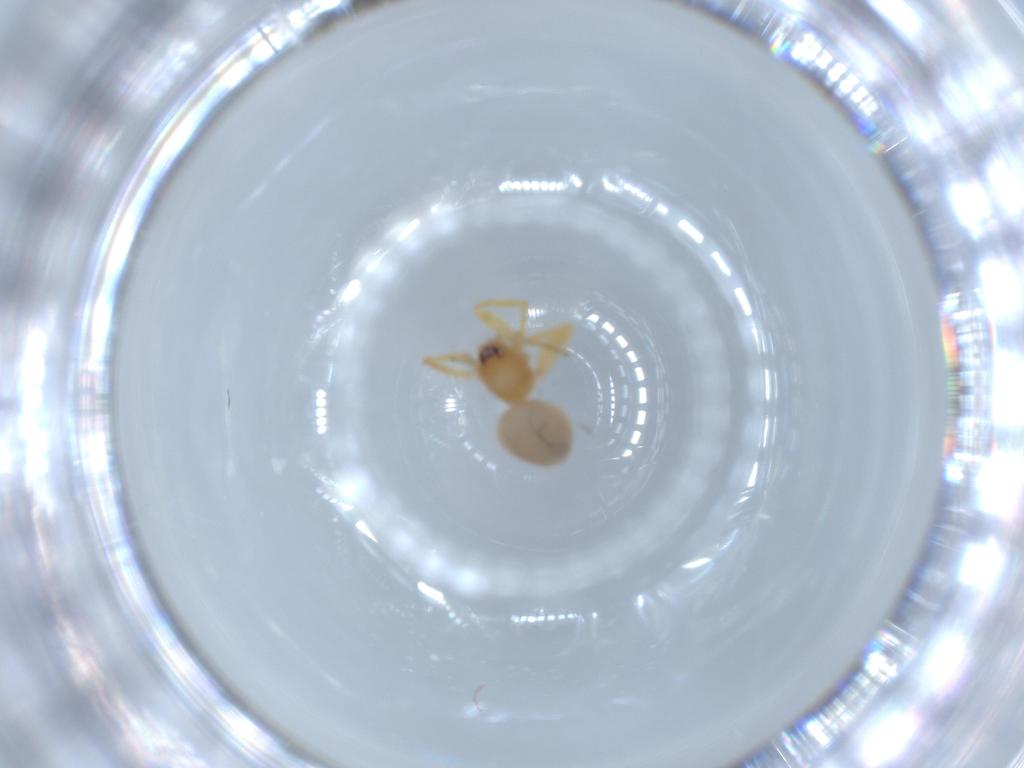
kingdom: Animalia
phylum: Arthropoda
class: Arachnida
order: Araneae
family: Oonopidae
